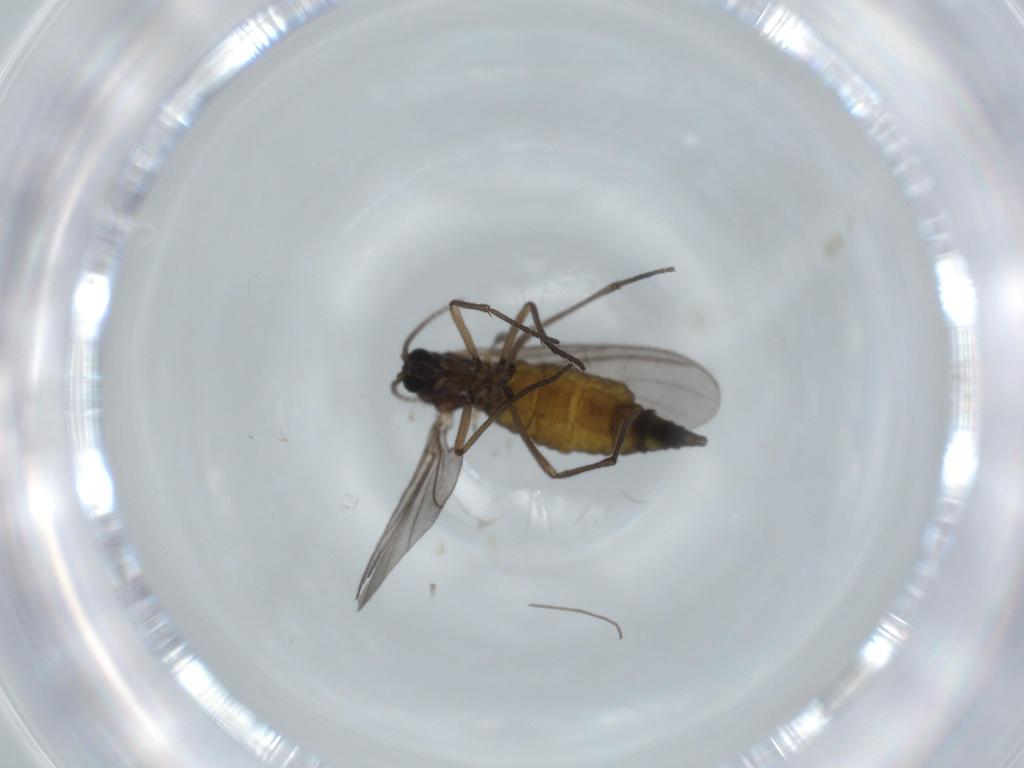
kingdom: Animalia
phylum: Arthropoda
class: Insecta
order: Diptera
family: Sciaridae
